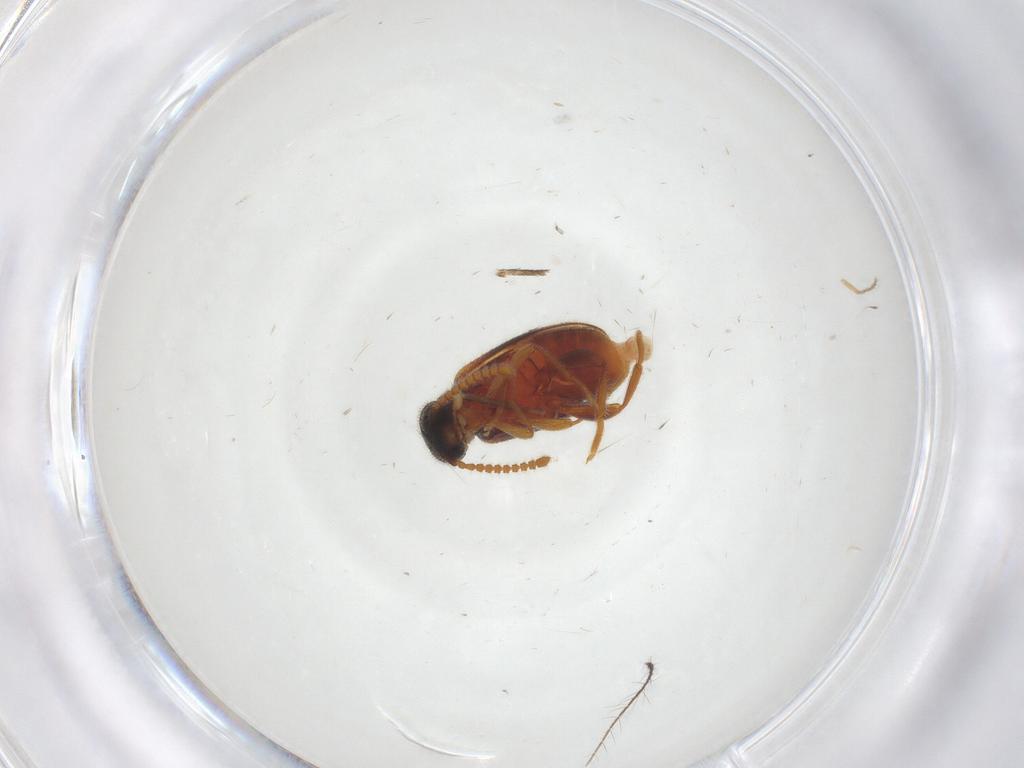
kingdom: Animalia
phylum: Arthropoda
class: Insecta
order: Coleoptera
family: Aderidae
